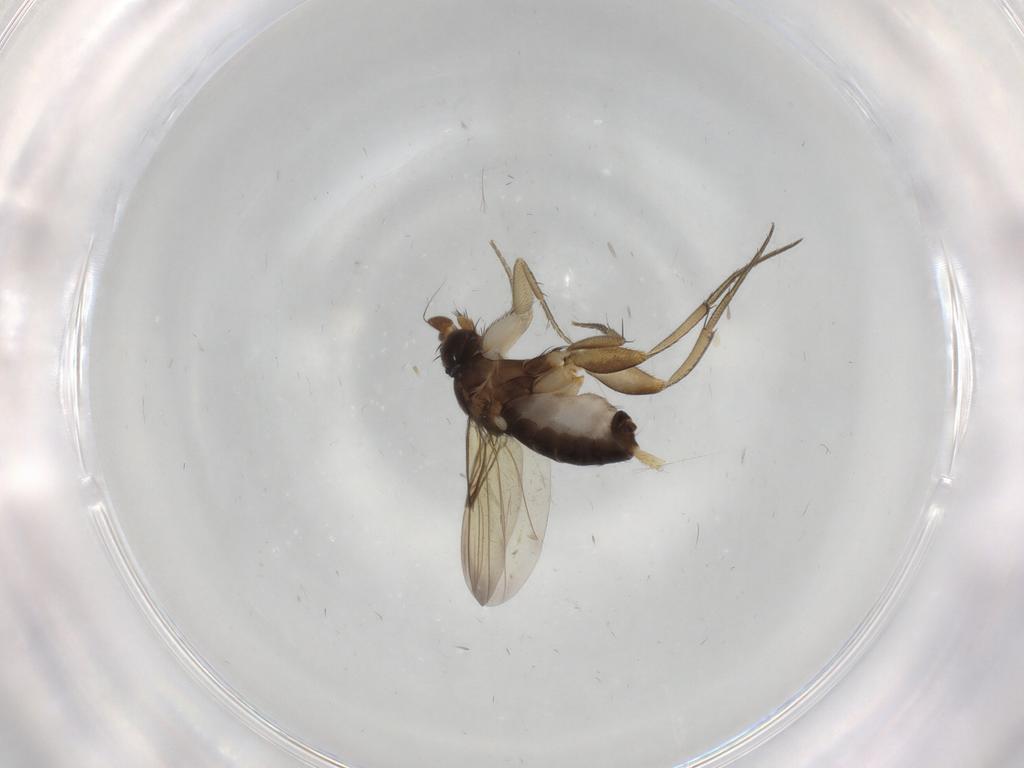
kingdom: Animalia
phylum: Arthropoda
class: Insecta
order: Diptera
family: Phoridae
